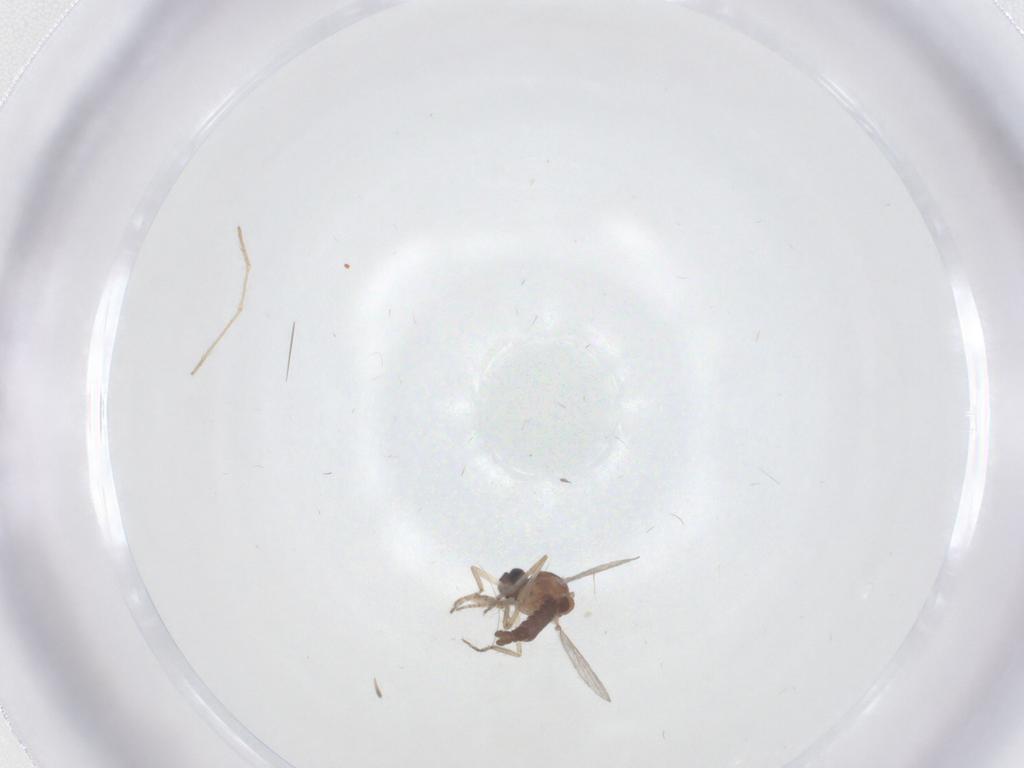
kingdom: Animalia
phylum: Arthropoda
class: Insecta
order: Diptera
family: Ceratopogonidae
